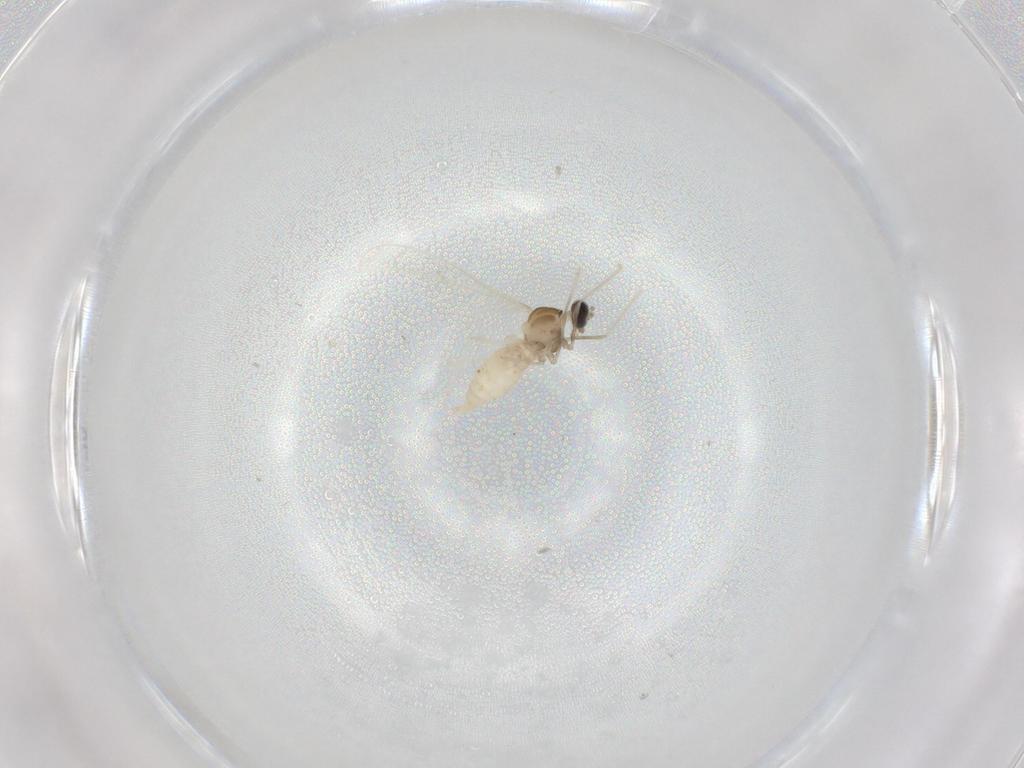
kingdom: Animalia
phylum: Arthropoda
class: Insecta
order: Diptera
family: Cecidomyiidae
